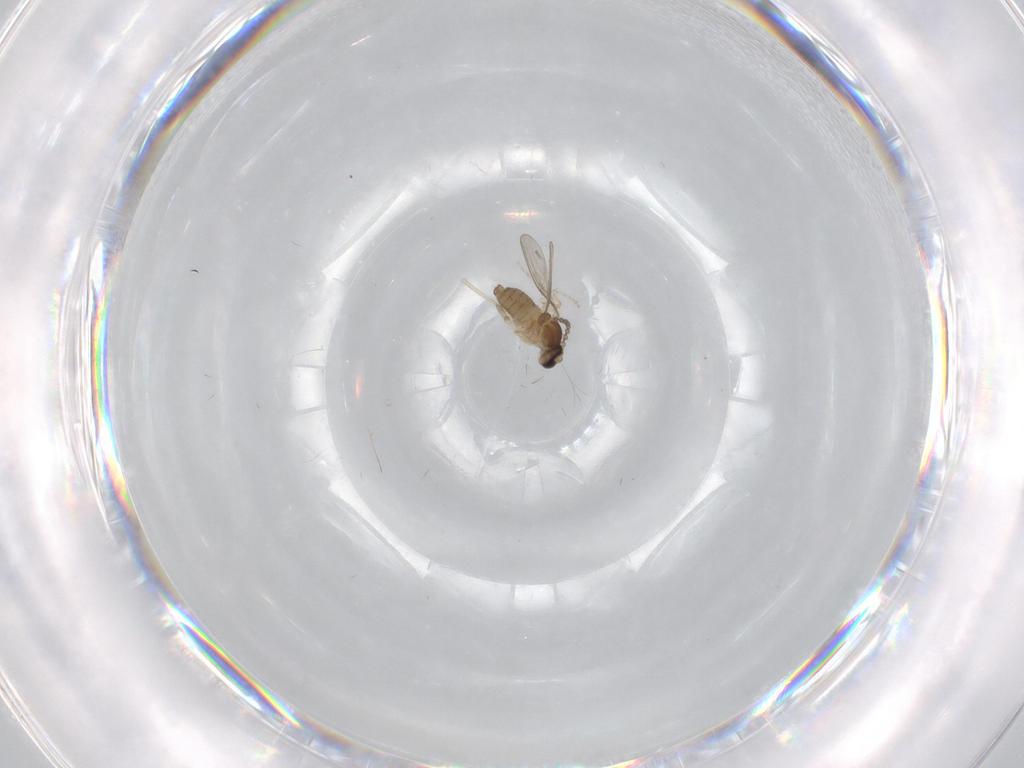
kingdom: Animalia
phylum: Arthropoda
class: Insecta
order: Diptera
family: Cecidomyiidae
